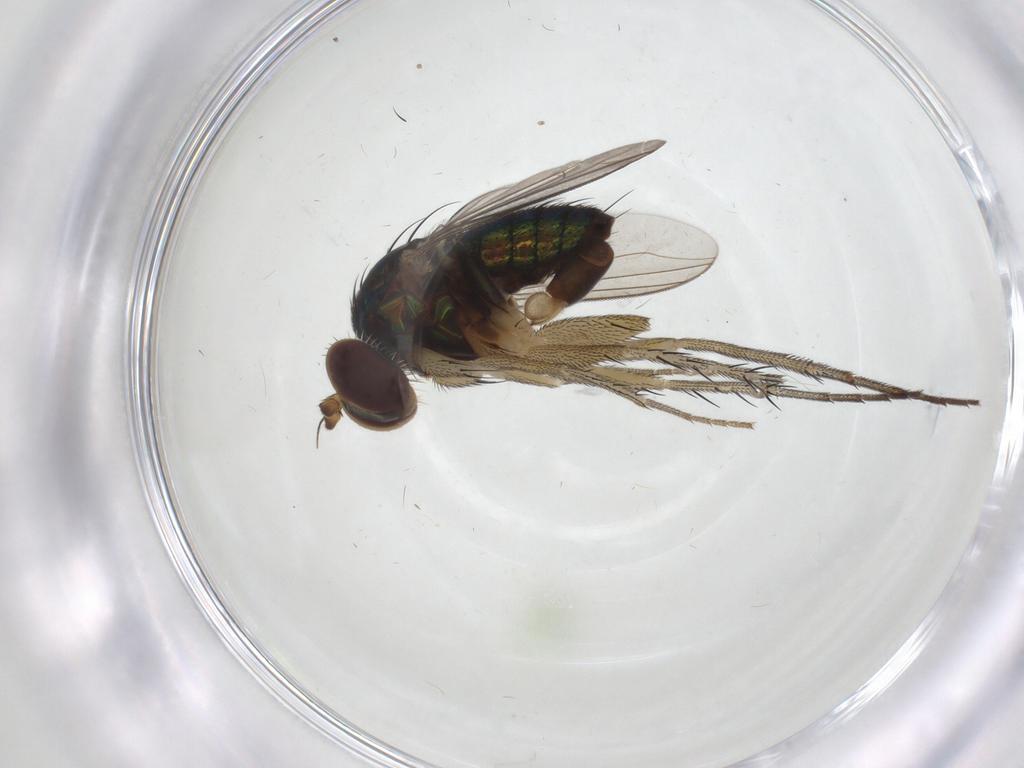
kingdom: Animalia
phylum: Arthropoda
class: Insecta
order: Diptera
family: Dolichopodidae
